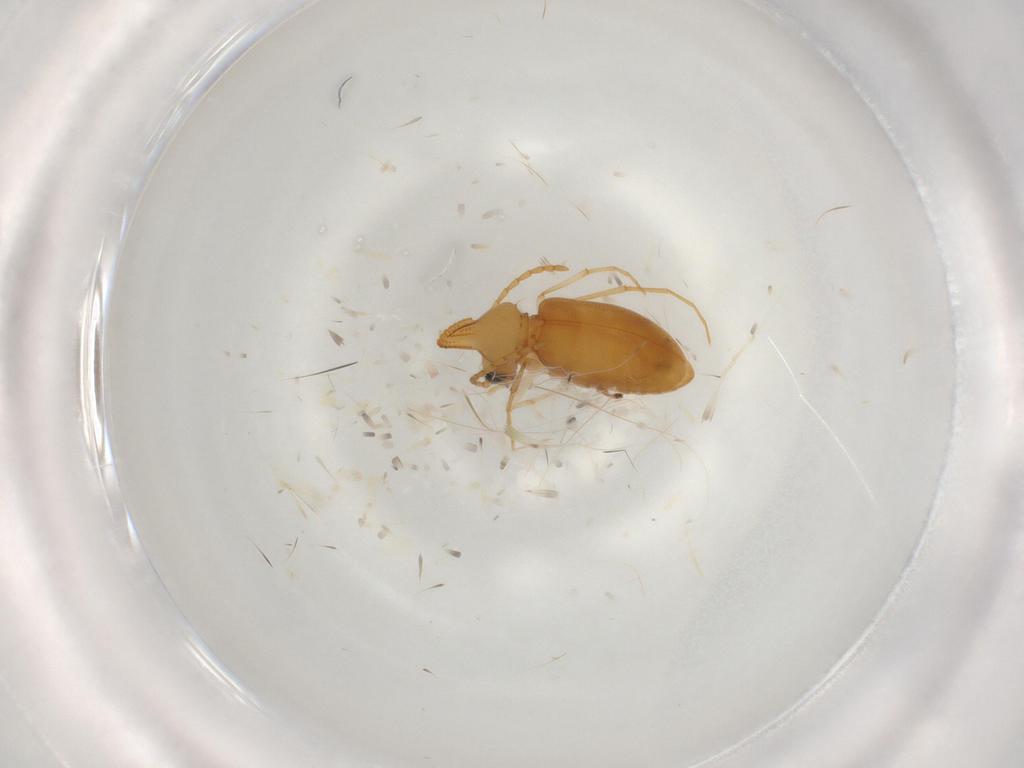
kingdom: Animalia
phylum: Arthropoda
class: Insecta
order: Coleoptera
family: Anthicidae
